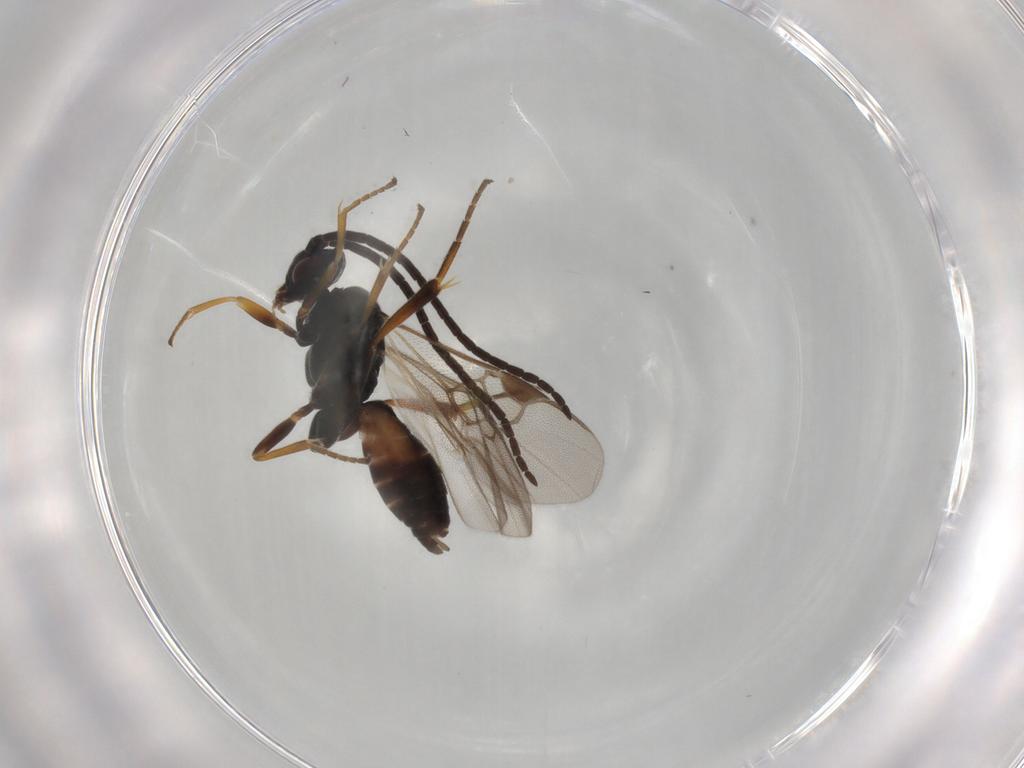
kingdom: Animalia
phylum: Arthropoda
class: Insecta
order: Hymenoptera
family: Braconidae
